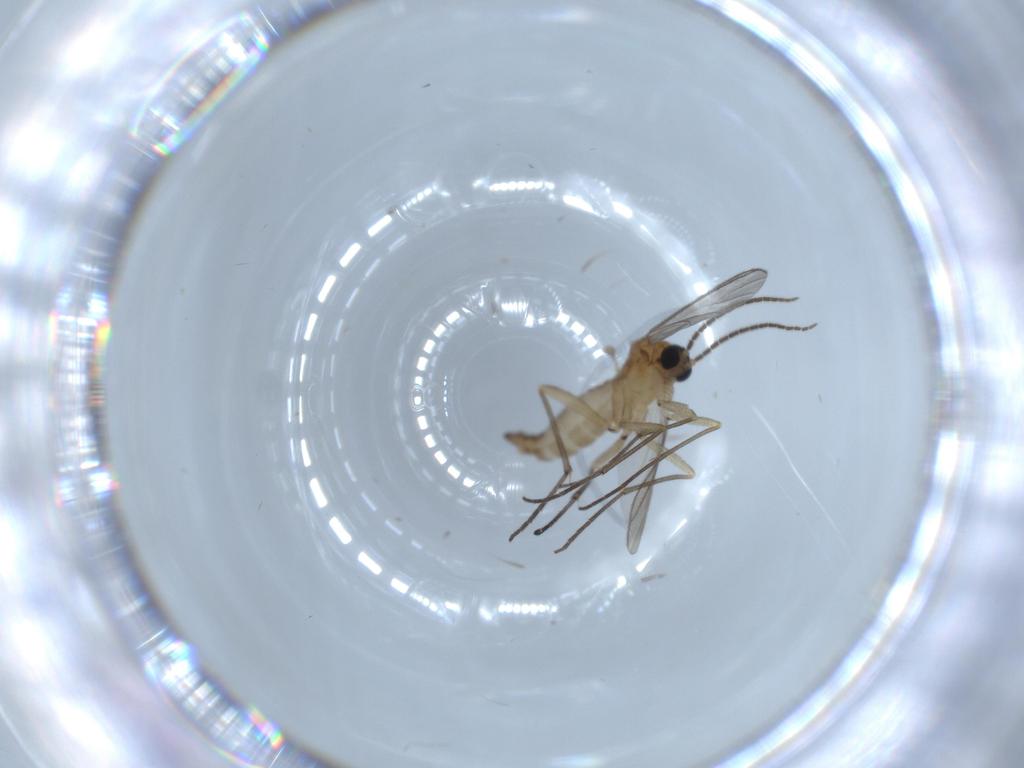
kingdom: Animalia
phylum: Arthropoda
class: Insecta
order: Diptera
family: Sciaridae
